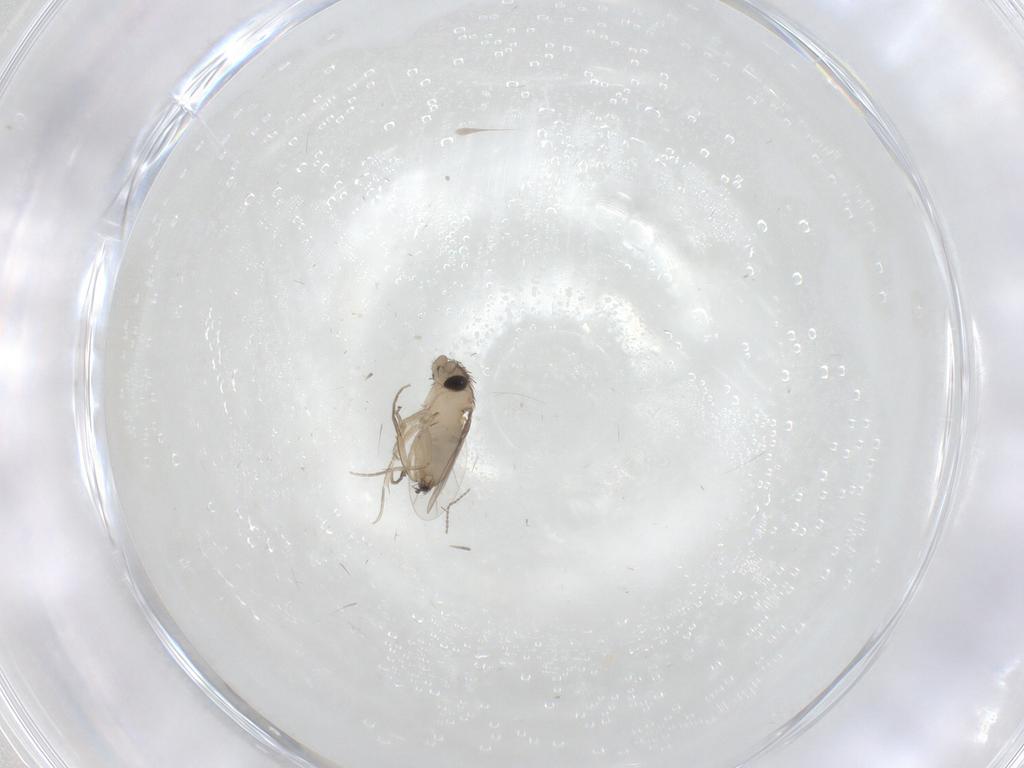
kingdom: Animalia
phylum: Arthropoda
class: Insecta
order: Diptera
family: Phoridae
